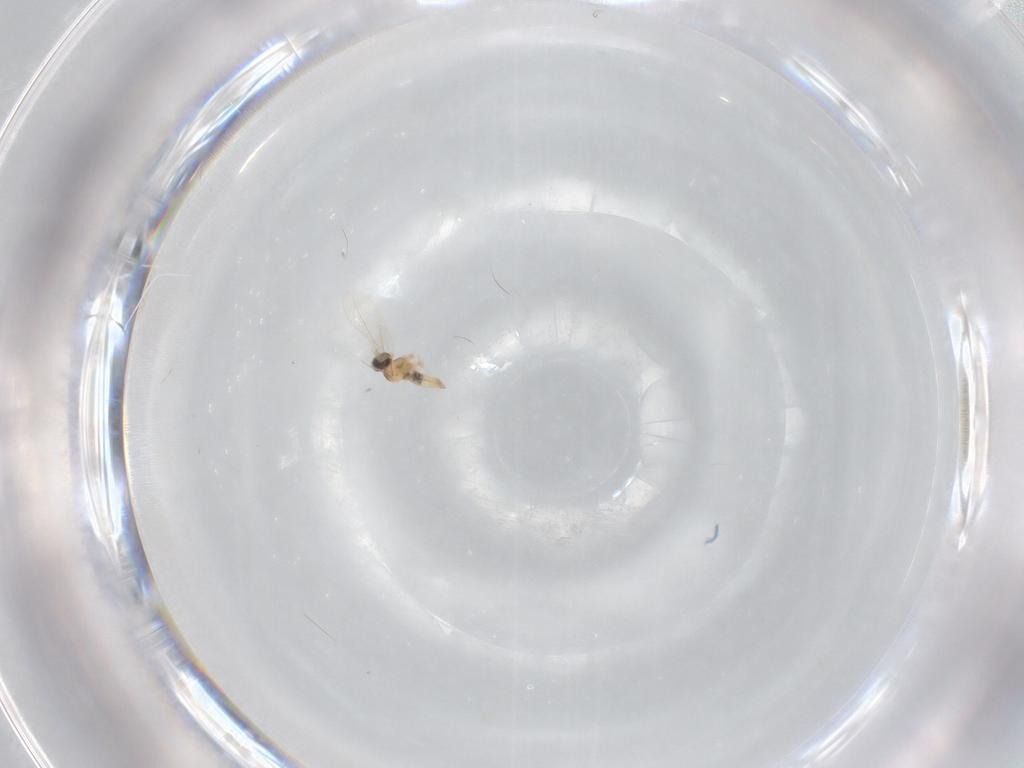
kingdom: Animalia
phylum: Arthropoda
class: Insecta
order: Diptera
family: Cecidomyiidae
